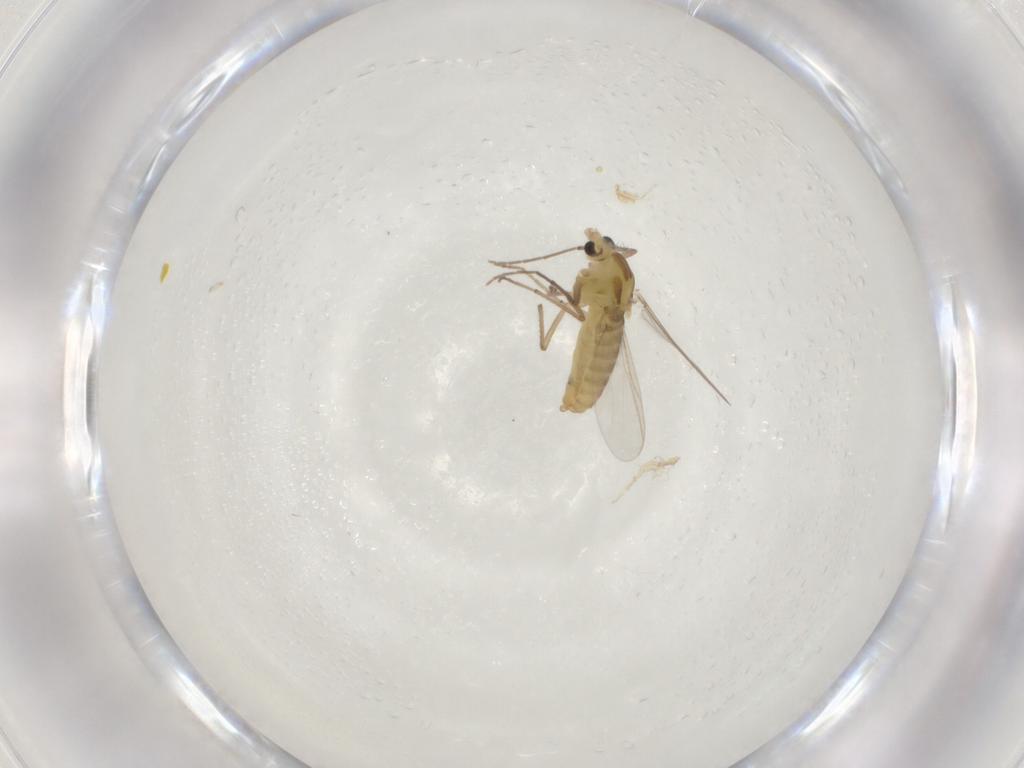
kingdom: Animalia
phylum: Arthropoda
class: Insecta
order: Diptera
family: Chironomidae
